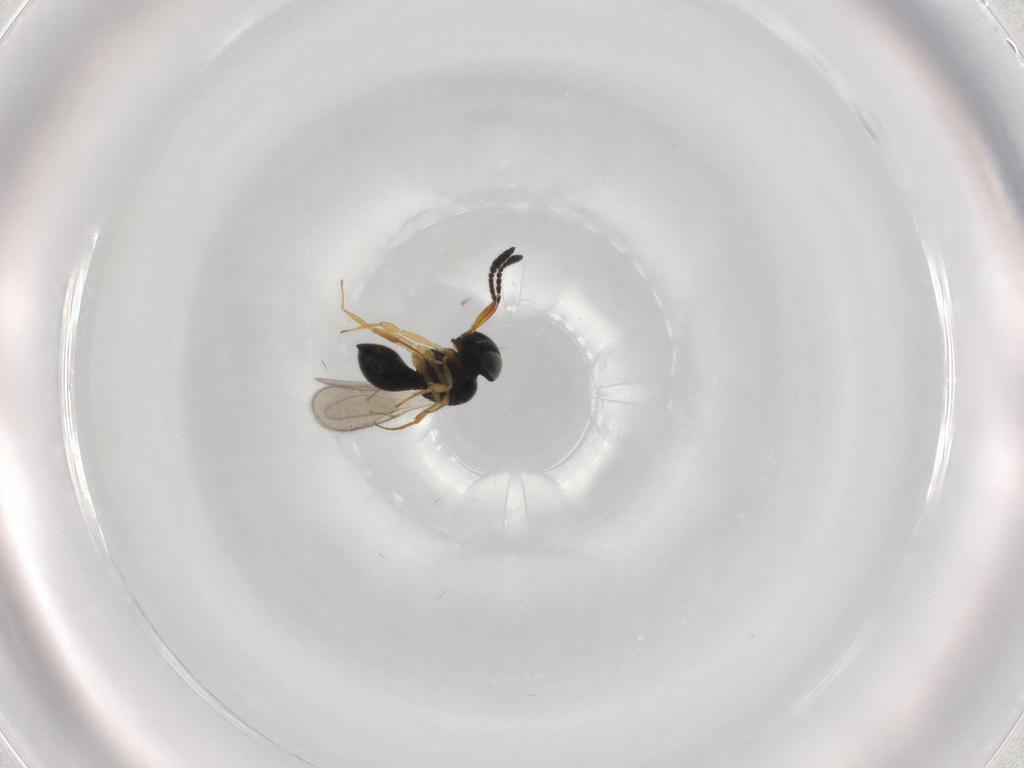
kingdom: Animalia
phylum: Arthropoda
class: Insecta
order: Hymenoptera
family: Scelionidae
